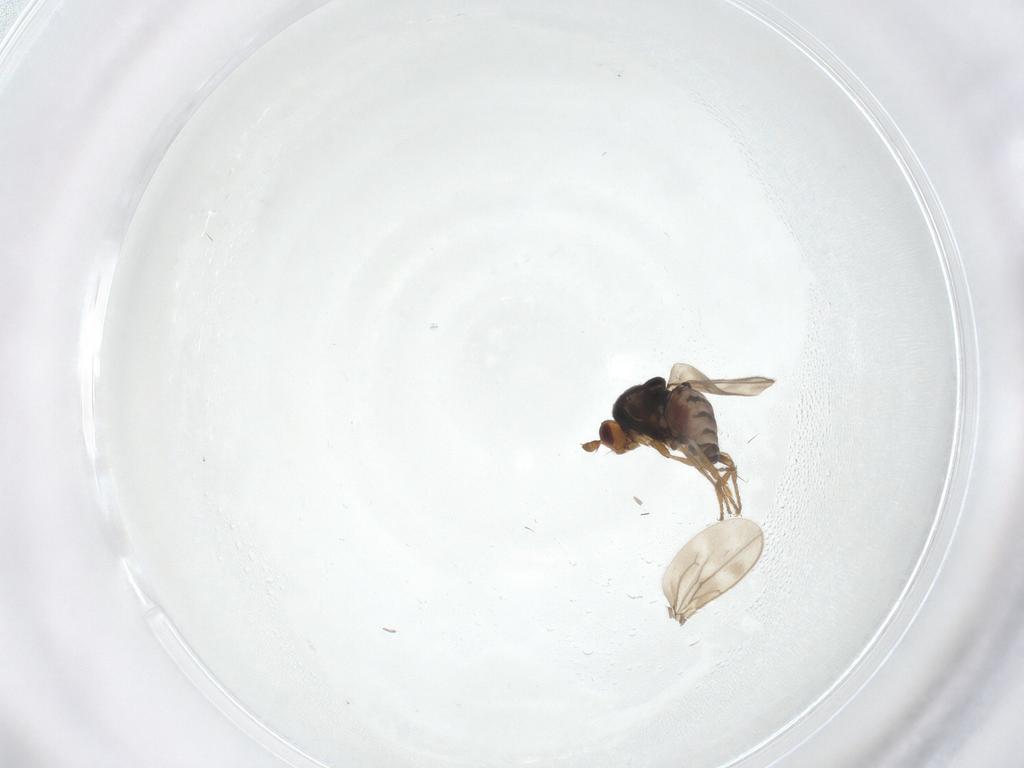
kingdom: Animalia
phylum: Arthropoda
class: Insecta
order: Diptera
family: Sphaeroceridae
